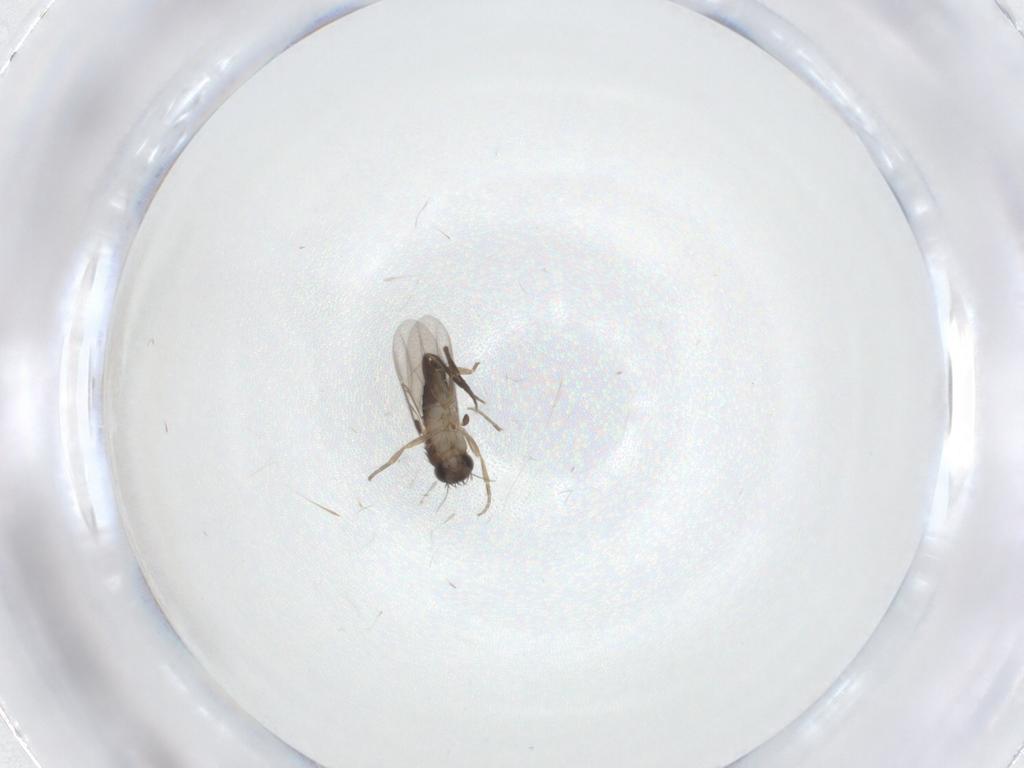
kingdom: Animalia
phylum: Arthropoda
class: Insecta
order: Diptera
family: Phoridae
